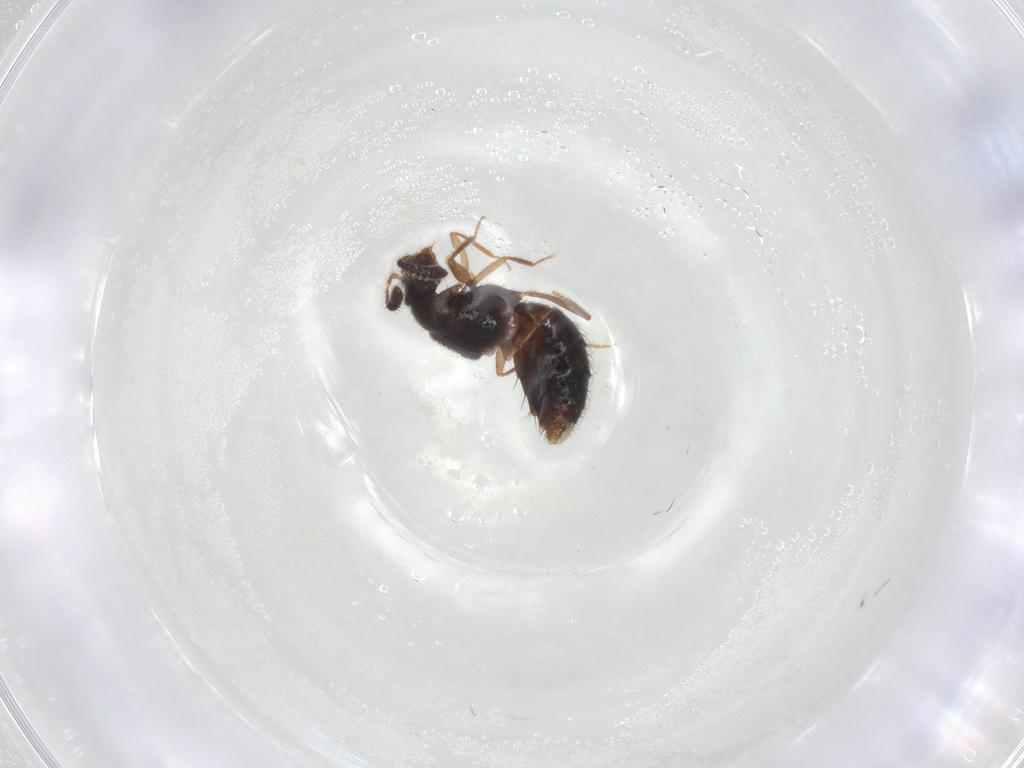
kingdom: Animalia
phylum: Arthropoda
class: Insecta
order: Coleoptera
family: Staphylinidae
